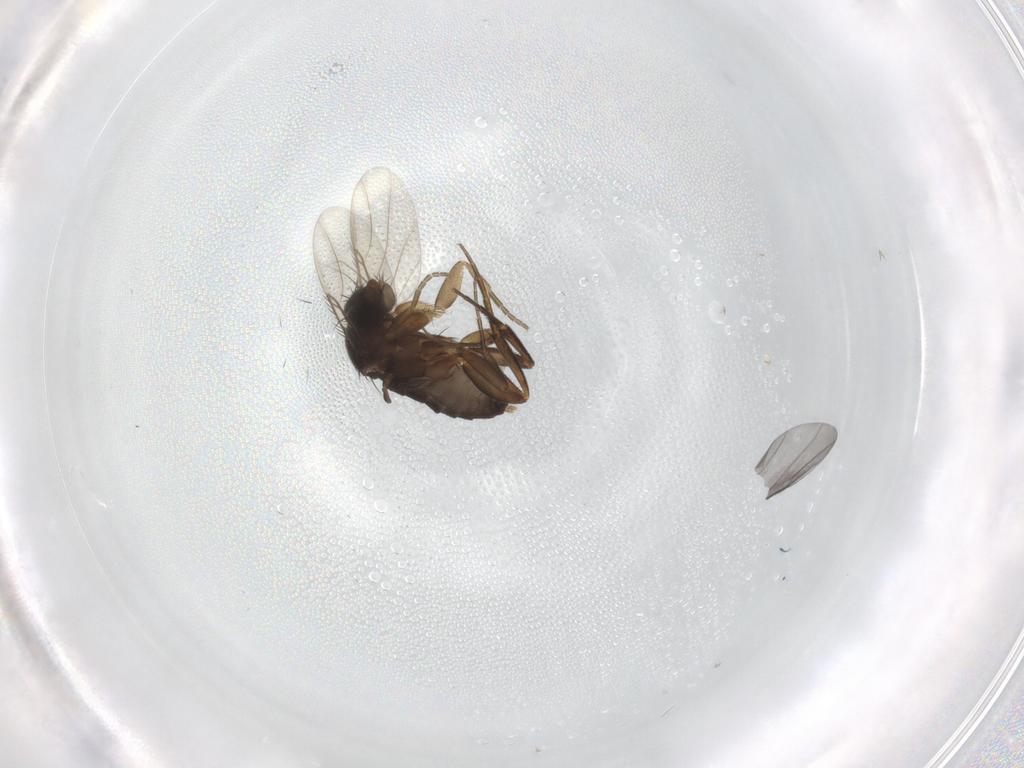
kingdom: Animalia
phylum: Arthropoda
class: Insecta
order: Diptera
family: Phoridae
